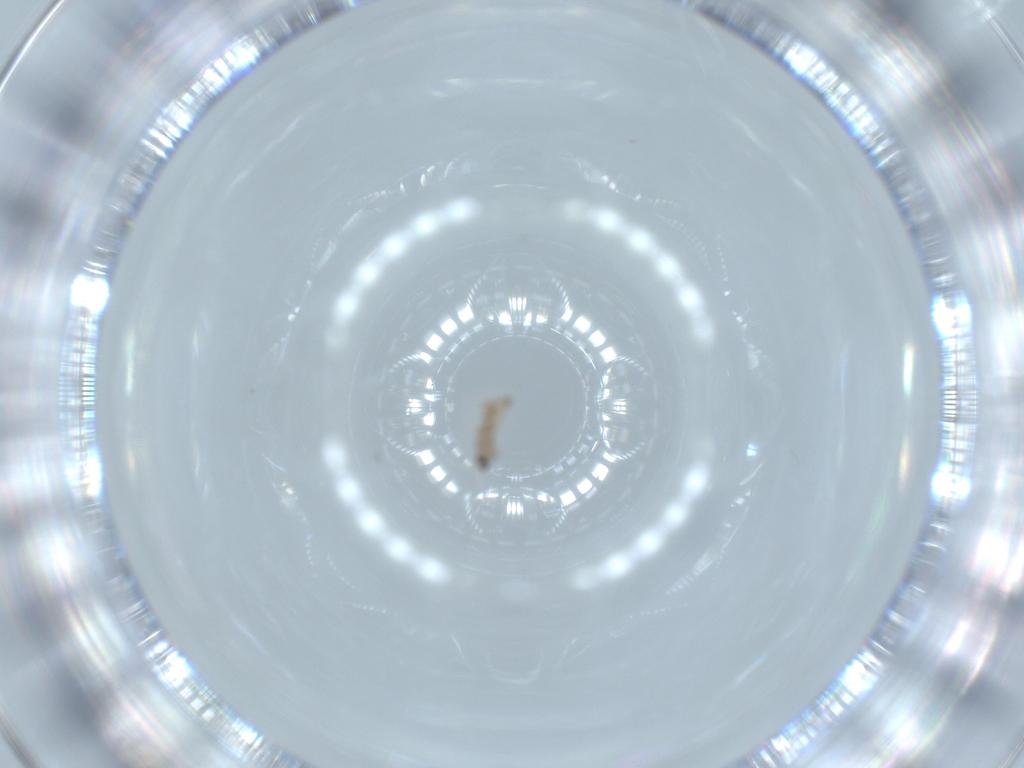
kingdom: Animalia
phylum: Arthropoda
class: Insecta
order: Diptera
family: Cecidomyiidae
